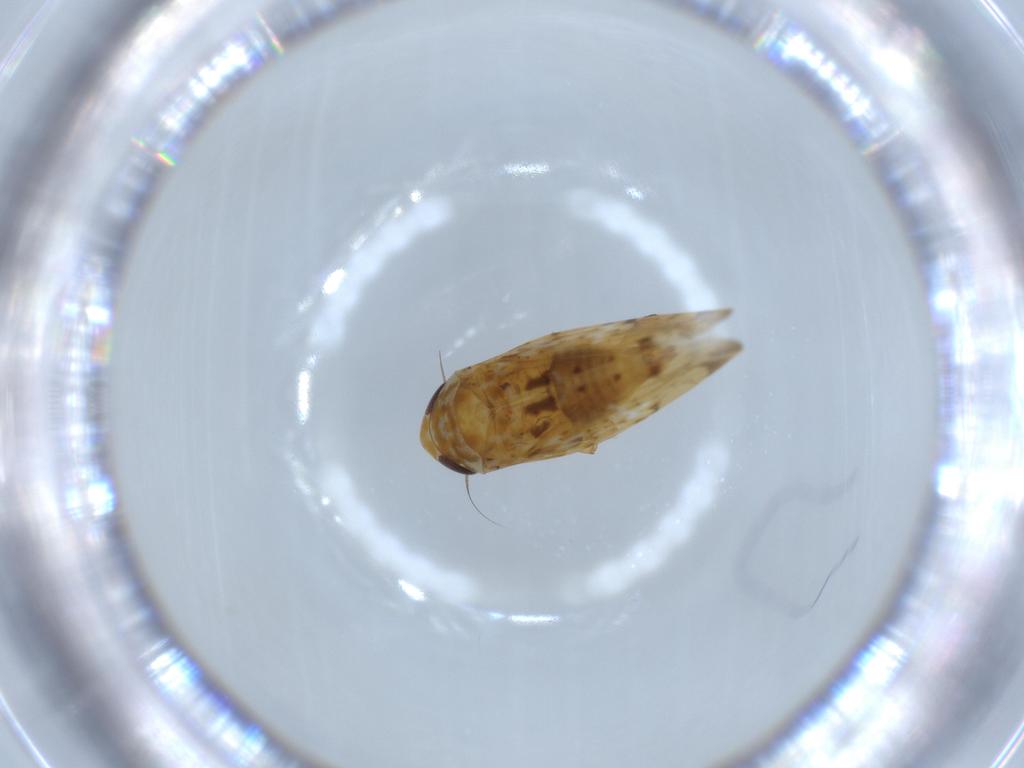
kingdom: Animalia
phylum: Arthropoda
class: Insecta
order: Hemiptera
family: Cicadellidae
